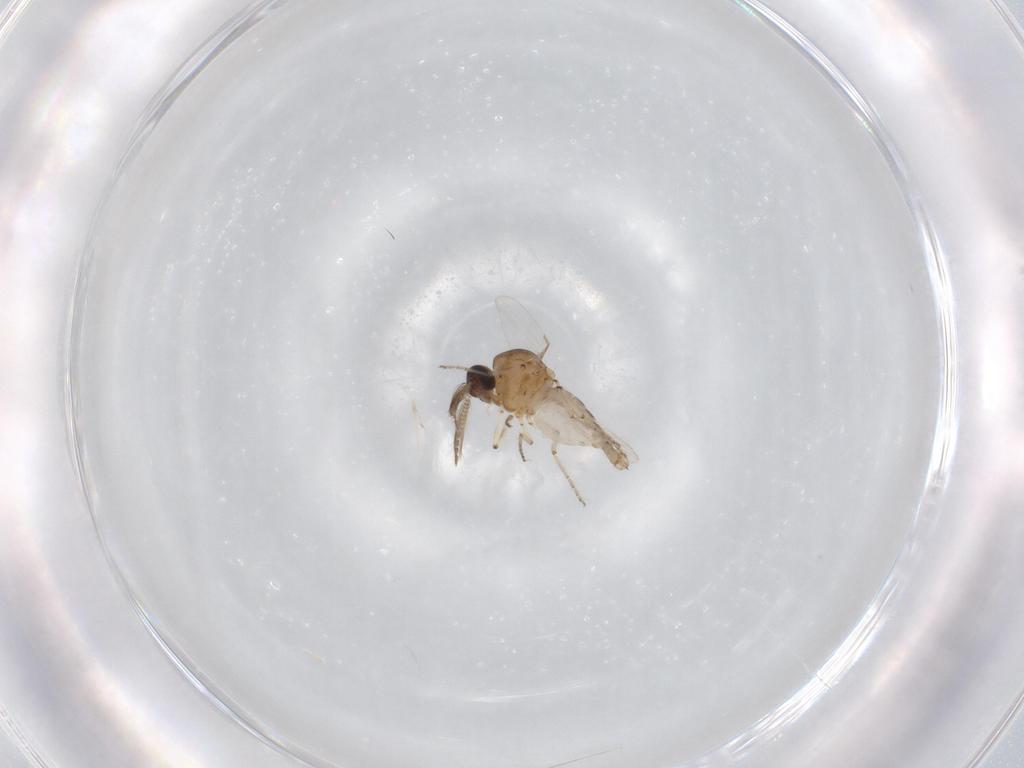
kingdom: Animalia
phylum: Arthropoda
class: Insecta
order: Diptera
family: Ceratopogonidae
